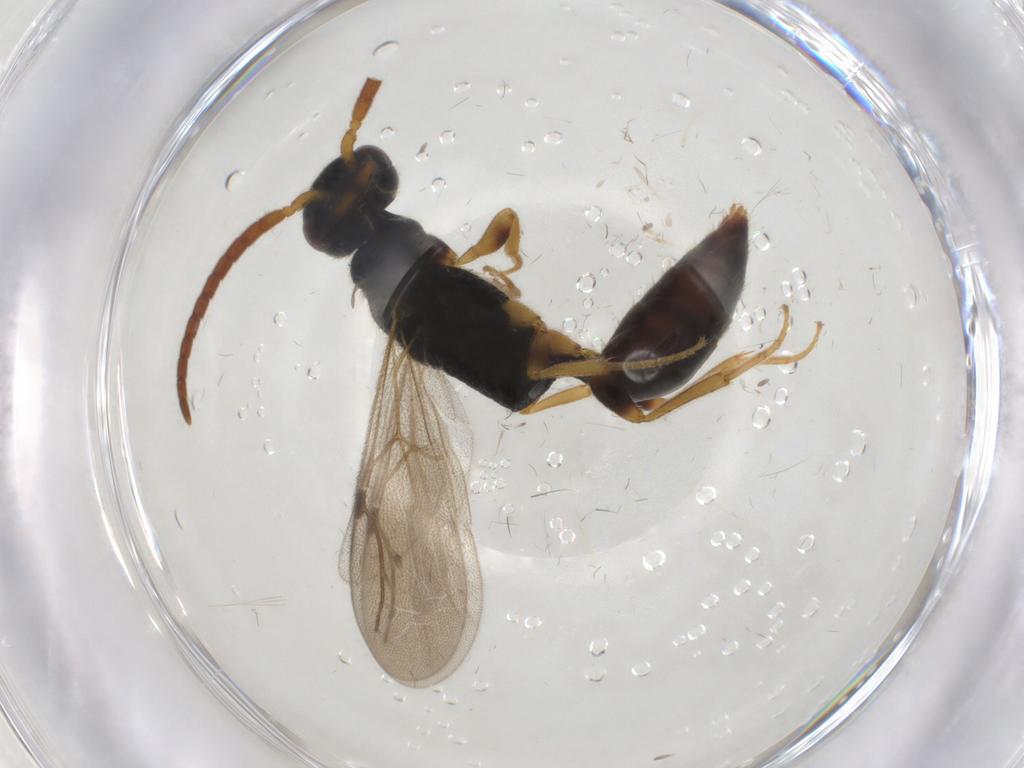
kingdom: Animalia
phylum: Arthropoda
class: Insecta
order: Hymenoptera
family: Bethylidae
